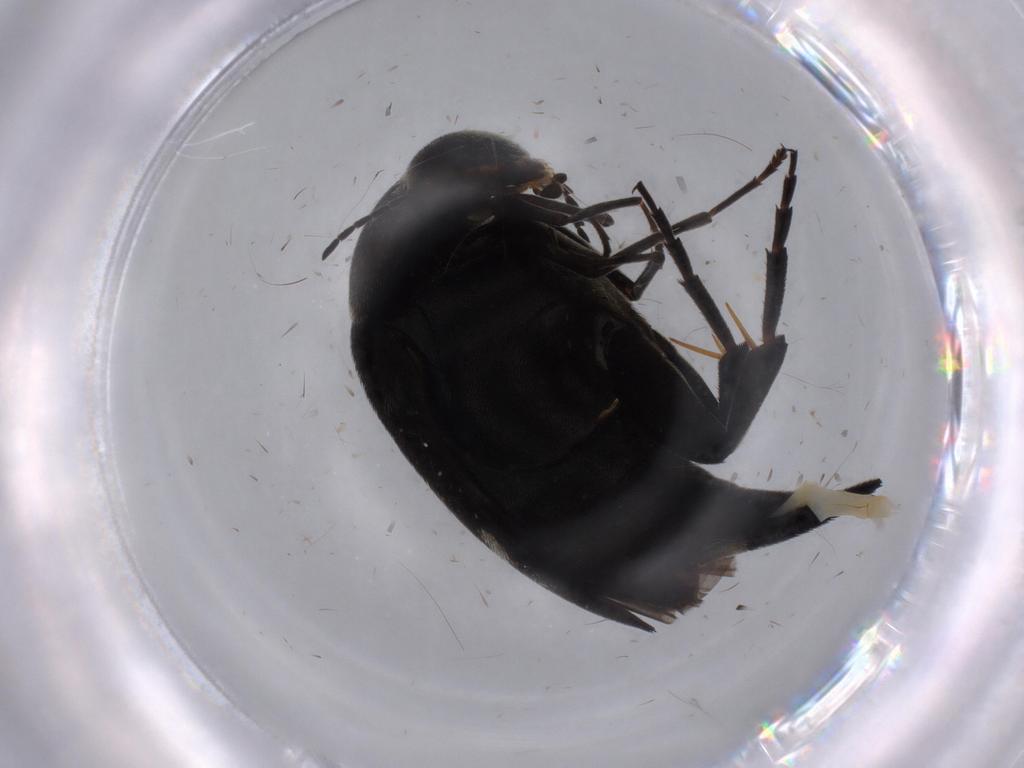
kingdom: Animalia
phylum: Arthropoda
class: Insecta
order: Coleoptera
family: Mordellidae
